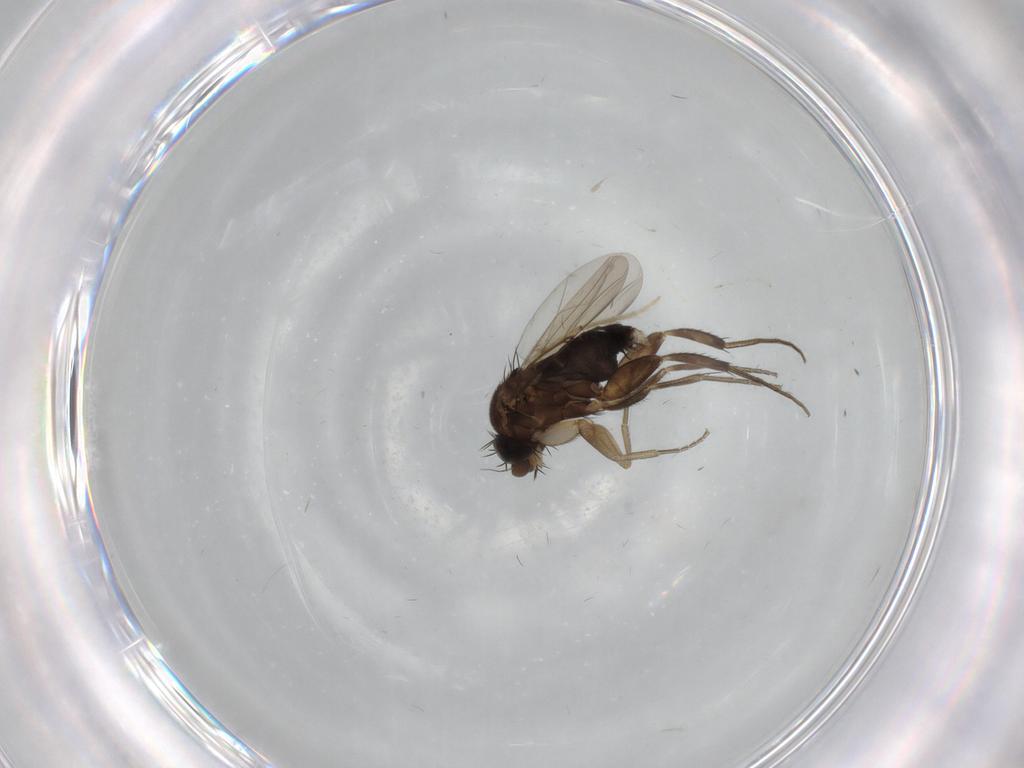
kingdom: Animalia
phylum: Arthropoda
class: Insecta
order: Diptera
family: Phoridae
